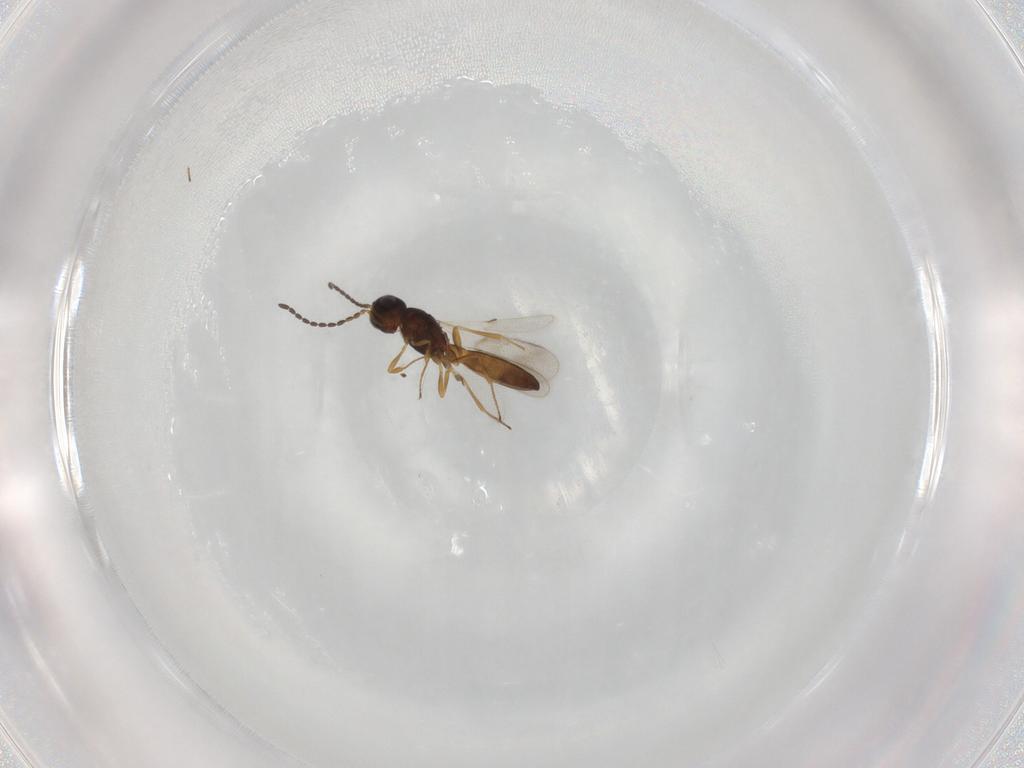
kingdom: Animalia
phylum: Arthropoda
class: Insecta
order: Hymenoptera
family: Scelionidae
